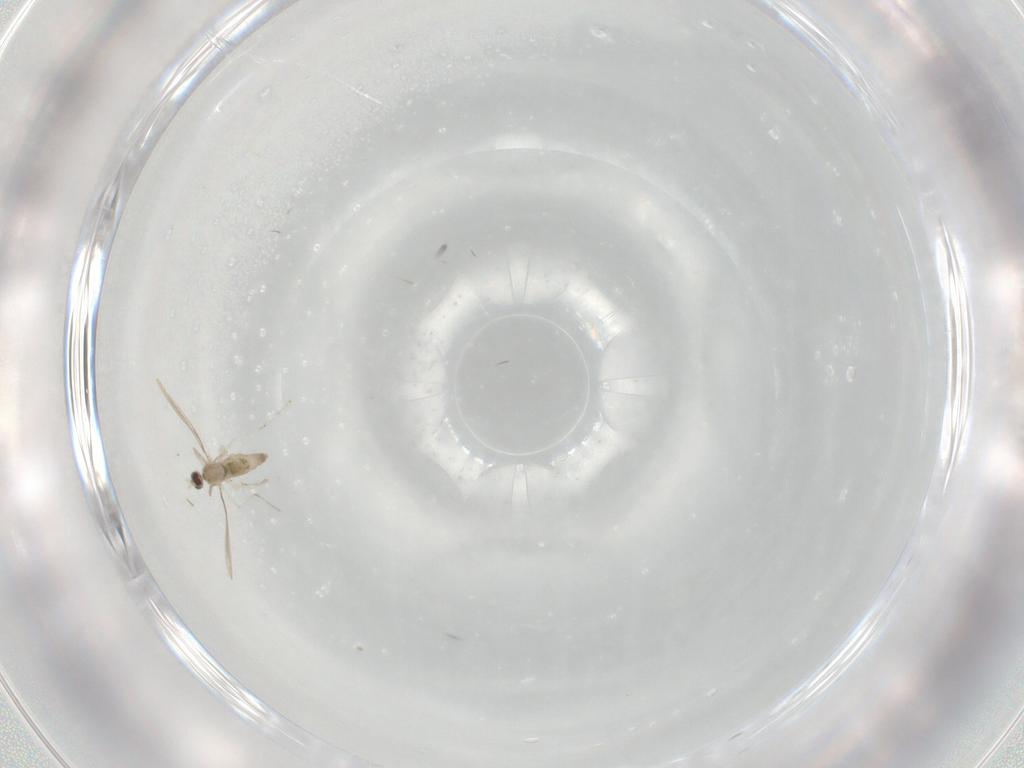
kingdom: Animalia
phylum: Arthropoda
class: Insecta
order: Diptera
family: Cecidomyiidae
